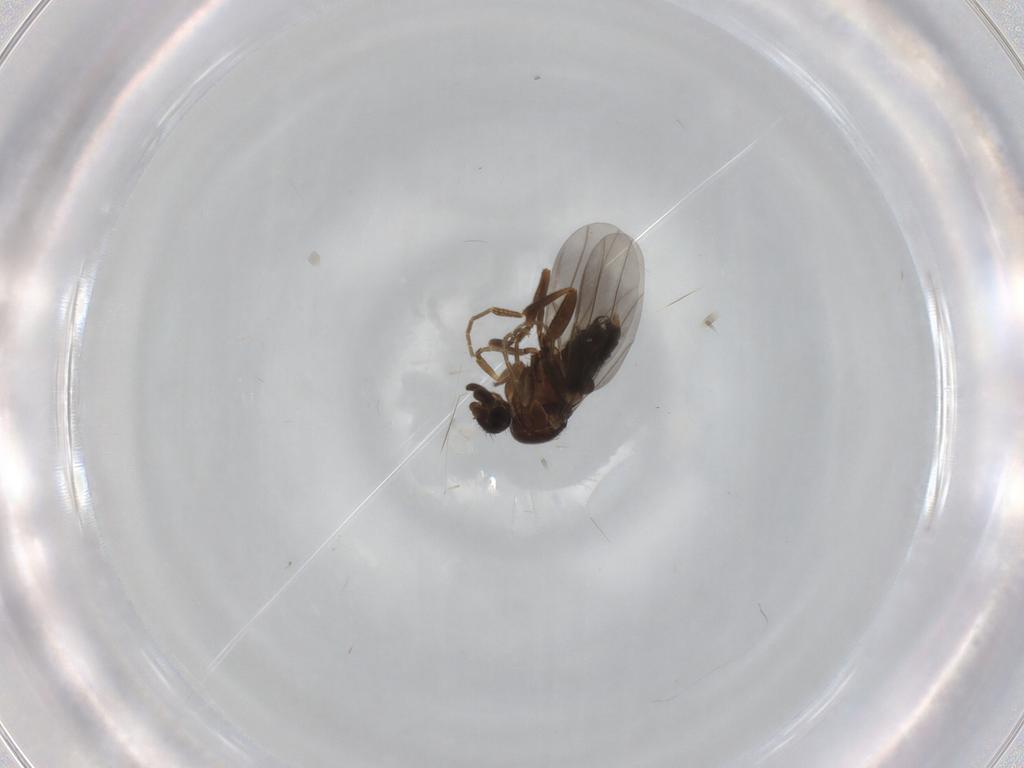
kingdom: Animalia
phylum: Arthropoda
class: Insecta
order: Diptera
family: Phoridae
